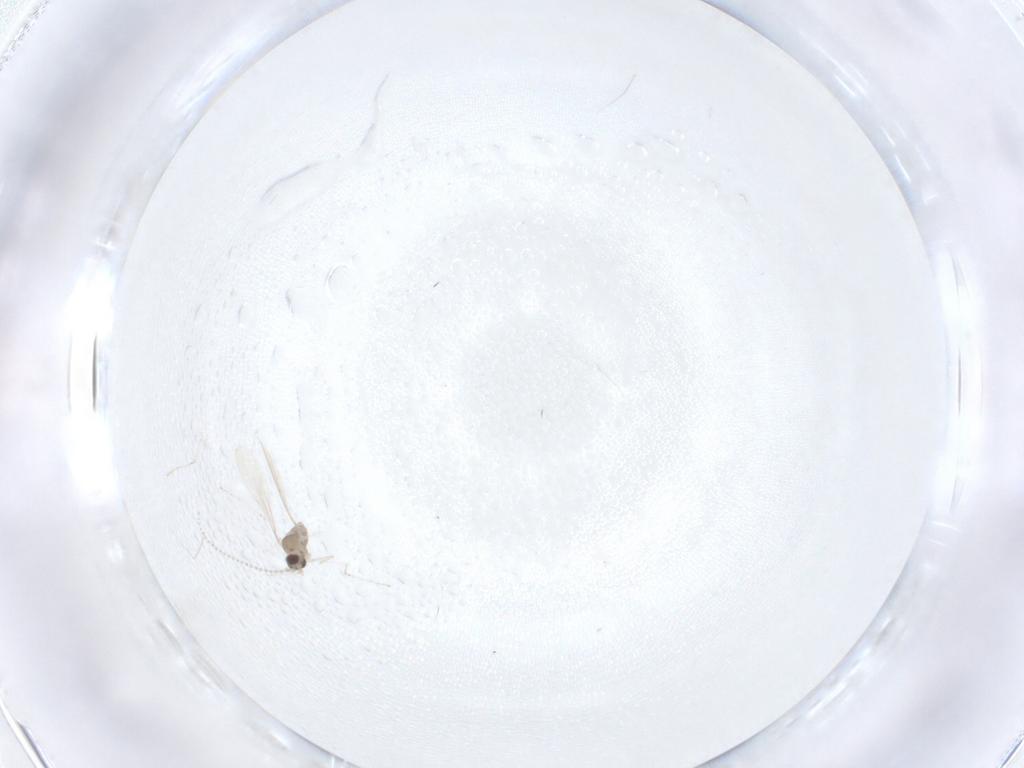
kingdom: Animalia
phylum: Arthropoda
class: Insecta
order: Diptera
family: Cecidomyiidae
